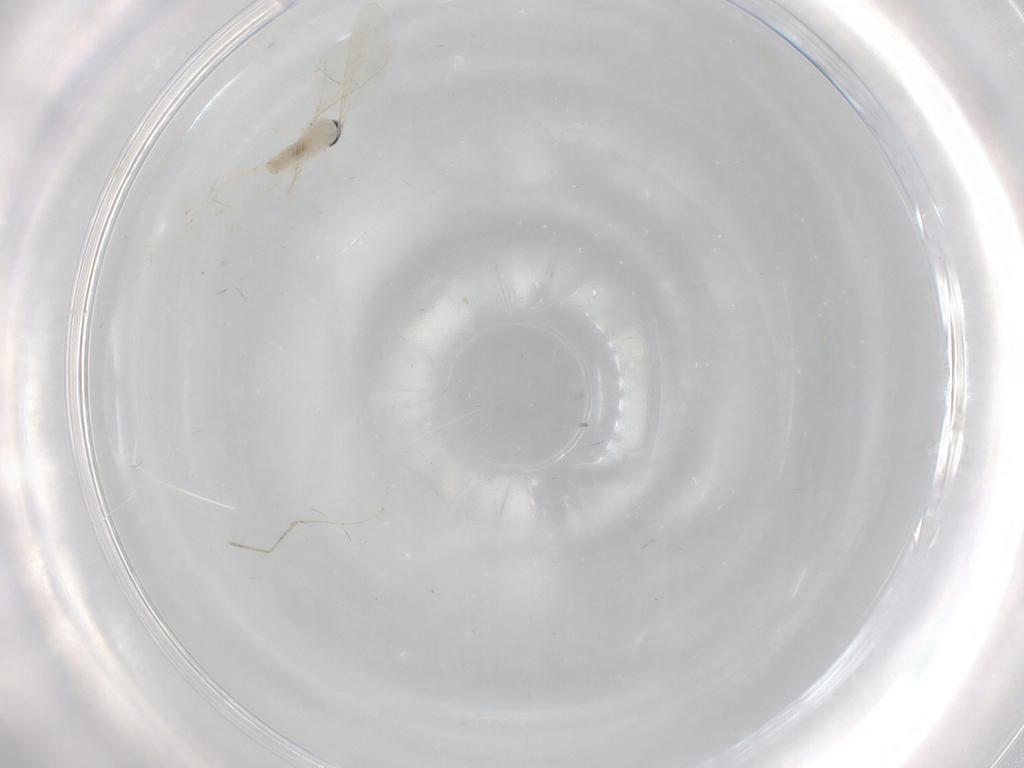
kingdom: Animalia
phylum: Arthropoda
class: Insecta
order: Diptera
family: Cecidomyiidae
